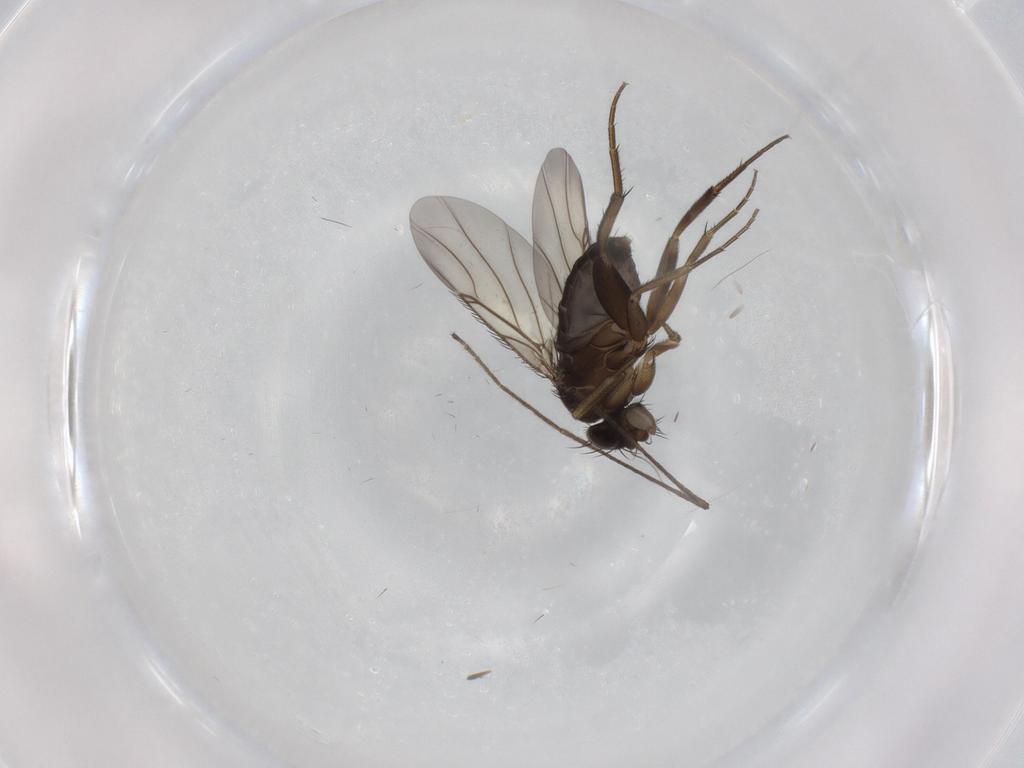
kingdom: Animalia
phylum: Arthropoda
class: Insecta
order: Diptera
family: Phoridae
